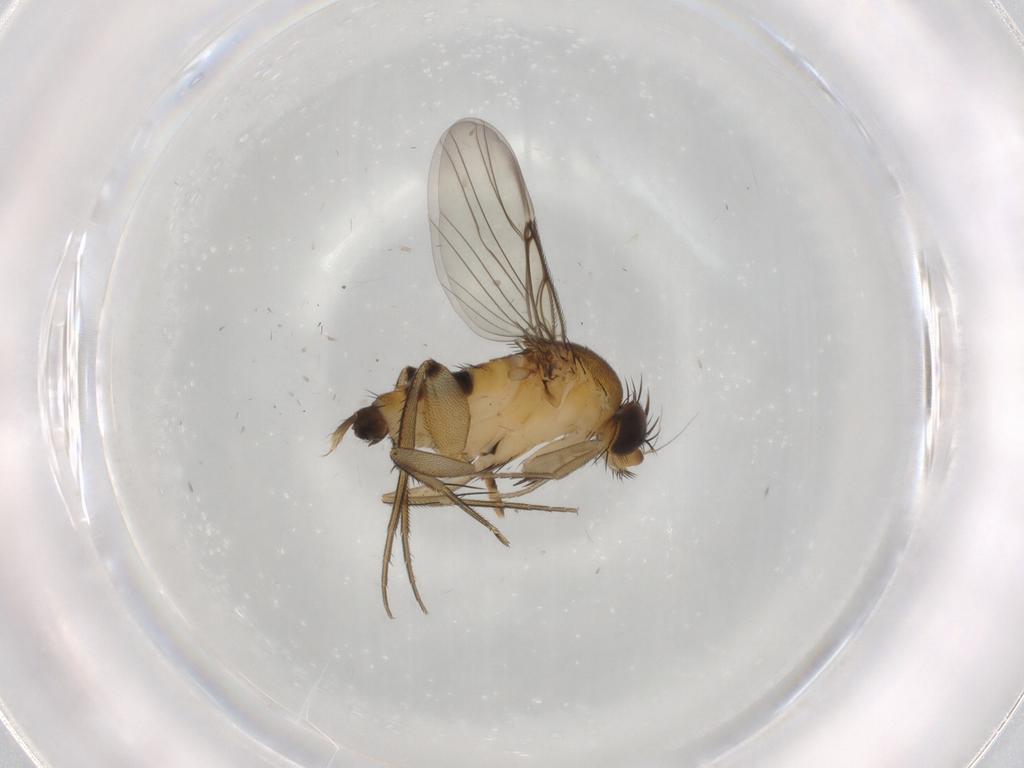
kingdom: Animalia
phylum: Arthropoda
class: Insecta
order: Diptera
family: Phoridae
